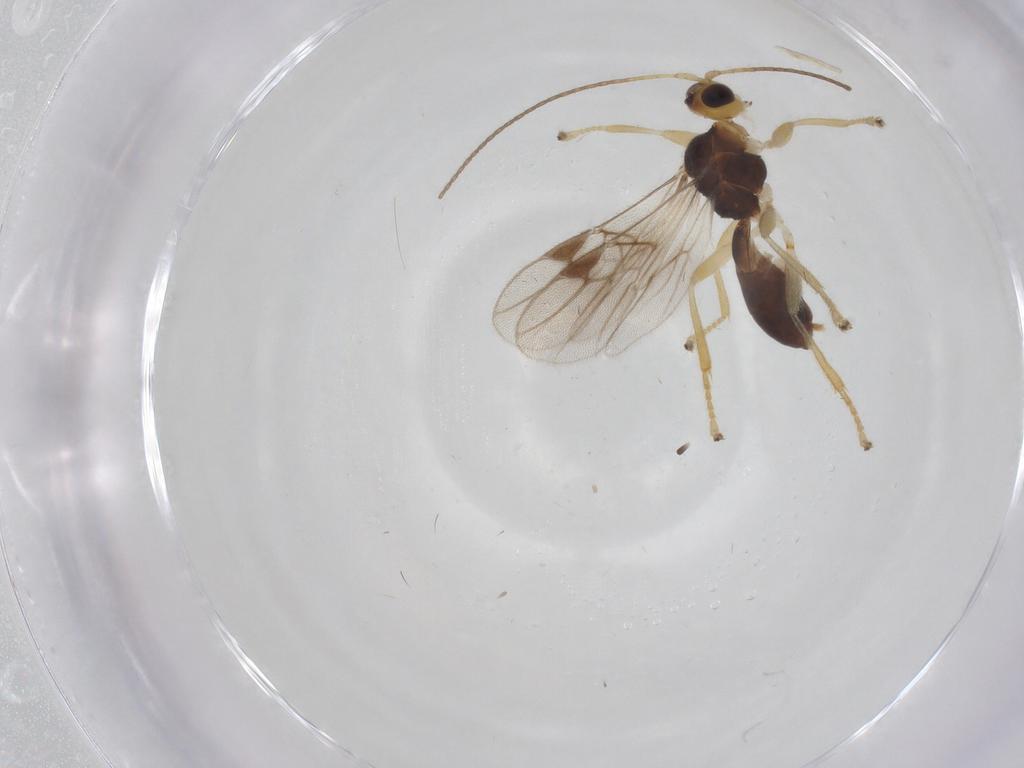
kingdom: Animalia
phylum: Arthropoda
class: Insecta
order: Hymenoptera
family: Braconidae
